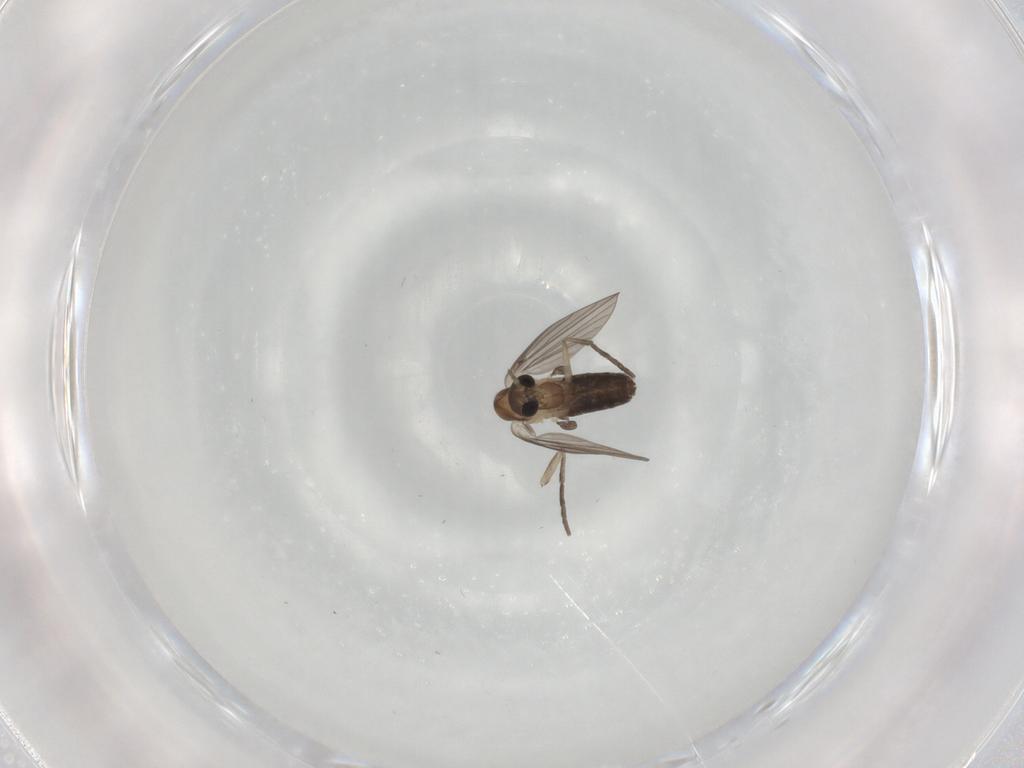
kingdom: Animalia
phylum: Arthropoda
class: Insecta
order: Diptera
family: Psychodidae
